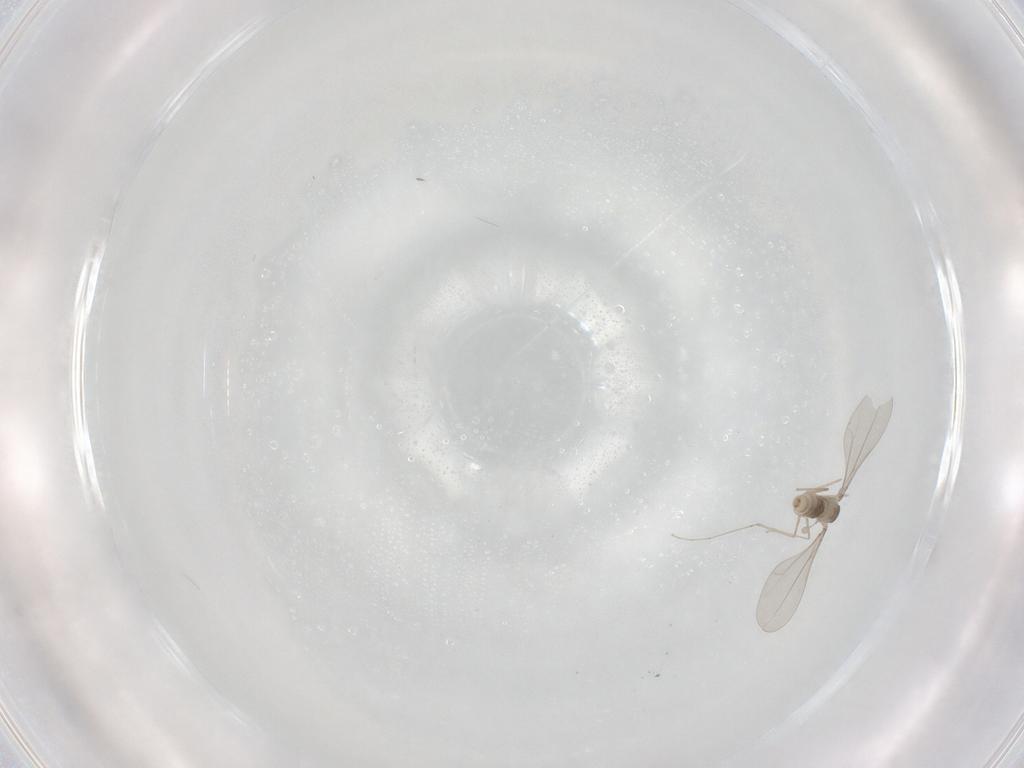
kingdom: Animalia
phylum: Arthropoda
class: Insecta
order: Diptera
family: Sciaridae
